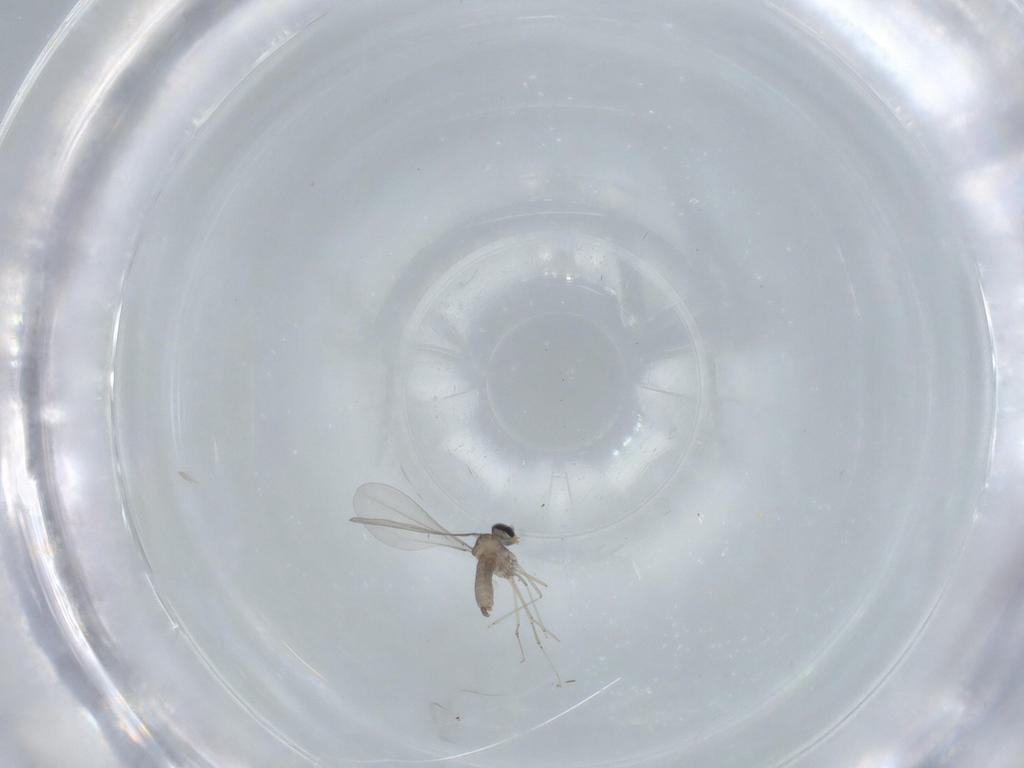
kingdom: Animalia
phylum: Arthropoda
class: Insecta
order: Diptera
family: Cecidomyiidae
